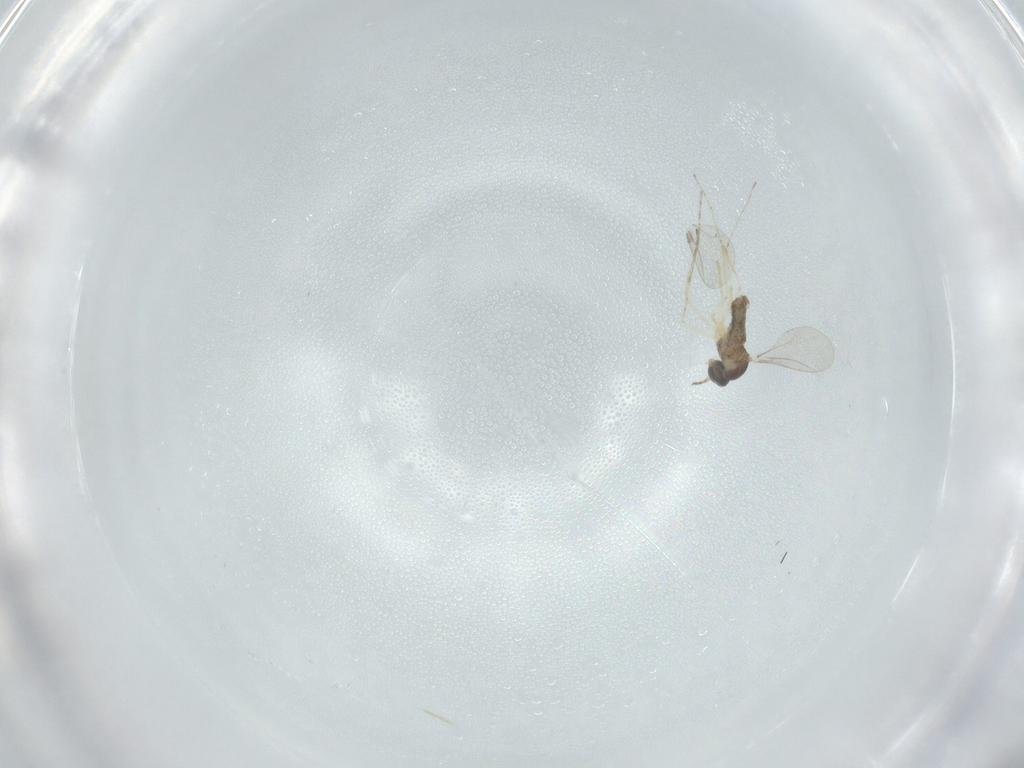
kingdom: Animalia
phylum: Arthropoda
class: Insecta
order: Diptera
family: Cecidomyiidae
